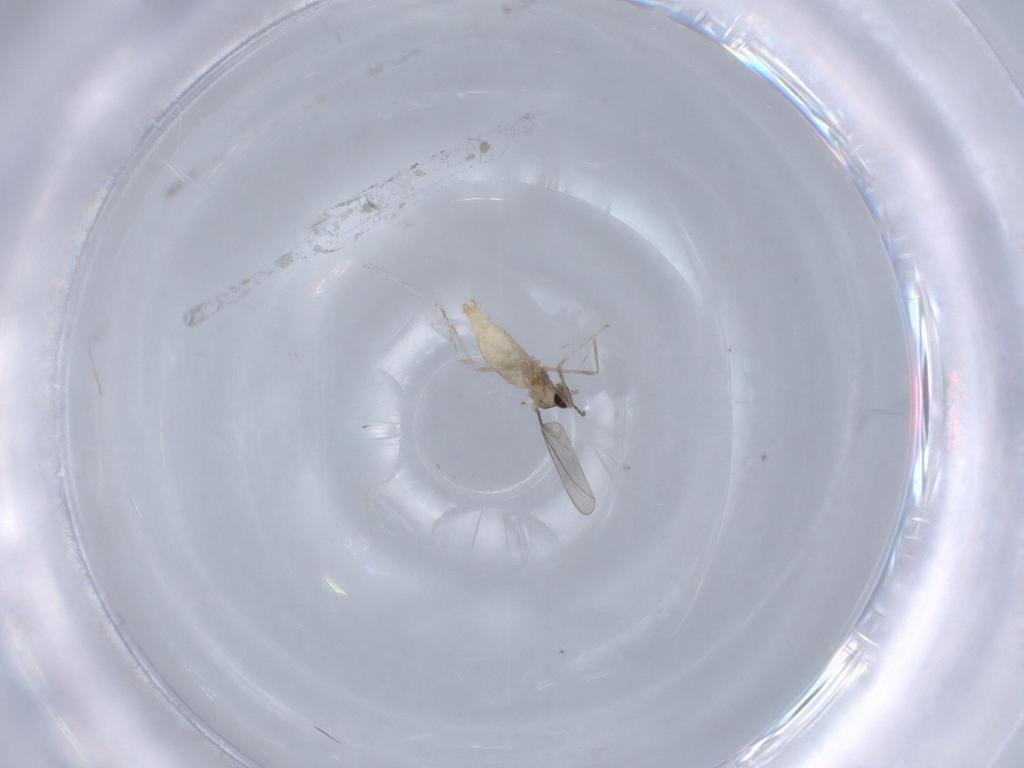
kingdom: Animalia
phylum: Arthropoda
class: Insecta
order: Diptera
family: Cecidomyiidae
